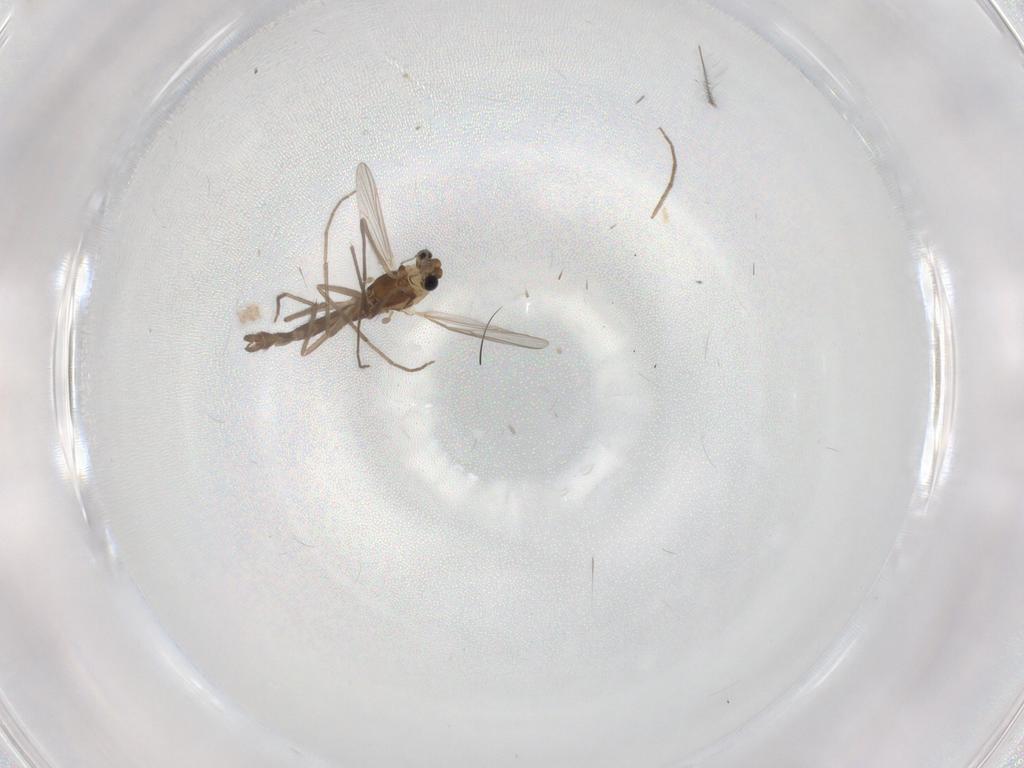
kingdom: Animalia
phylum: Arthropoda
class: Insecta
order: Diptera
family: Chironomidae
